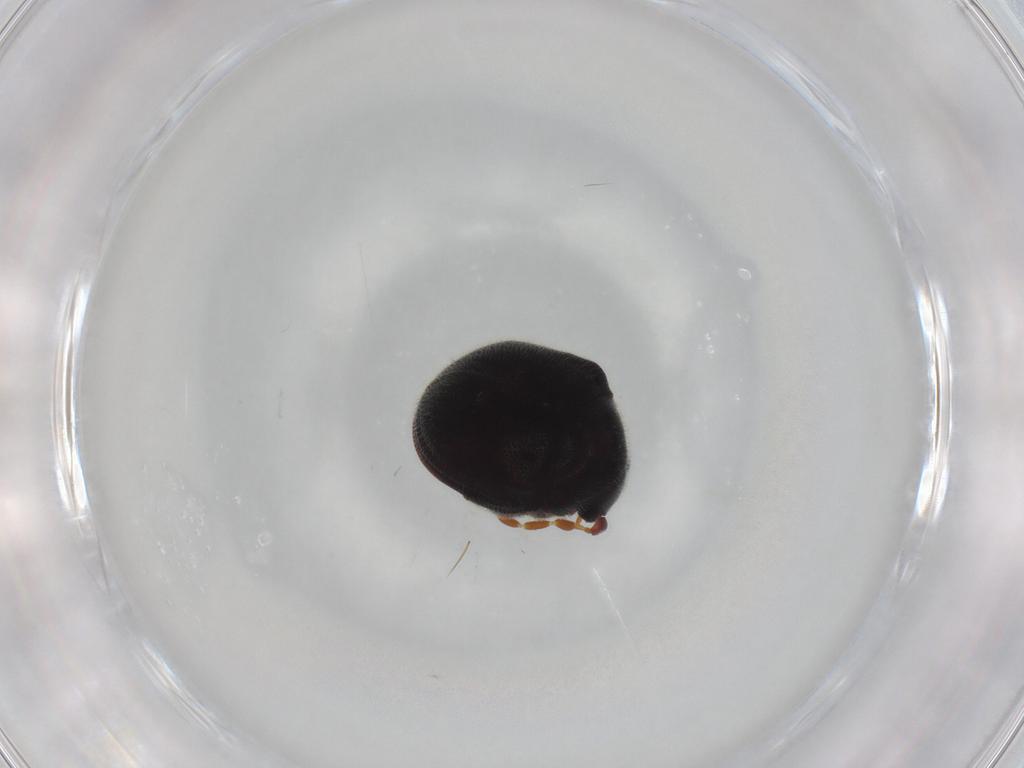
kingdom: Animalia
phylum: Arthropoda
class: Insecta
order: Coleoptera
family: Ptinidae
